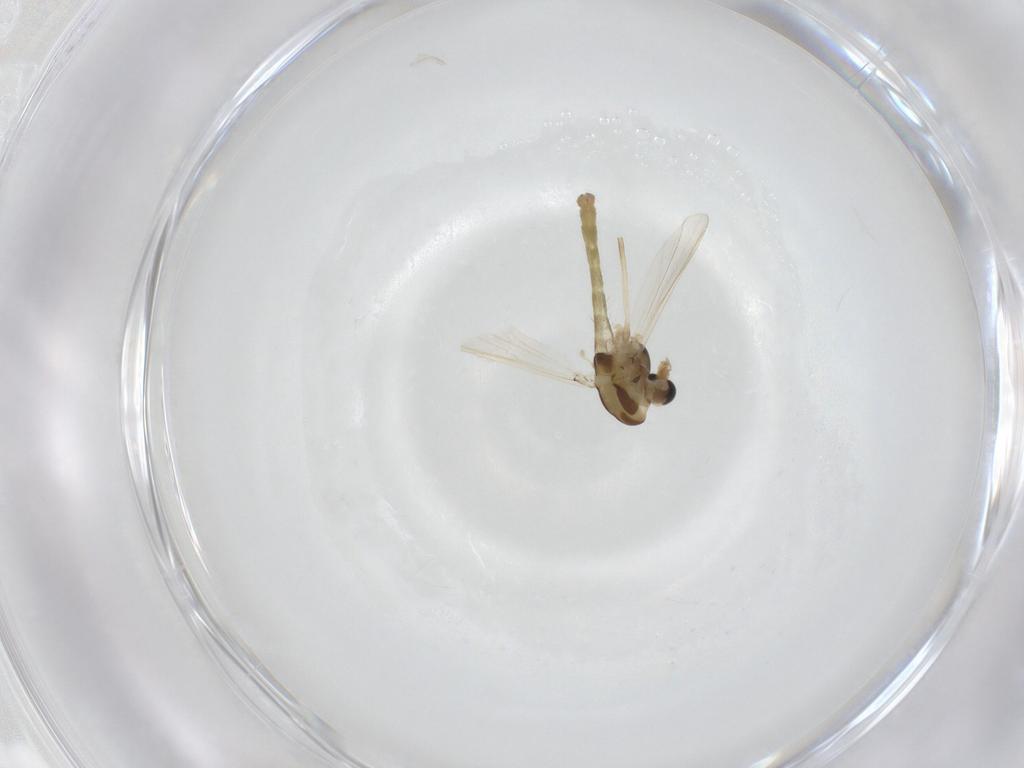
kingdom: Animalia
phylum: Arthropoda
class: Insecta
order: Diptera
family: Chironomidae
